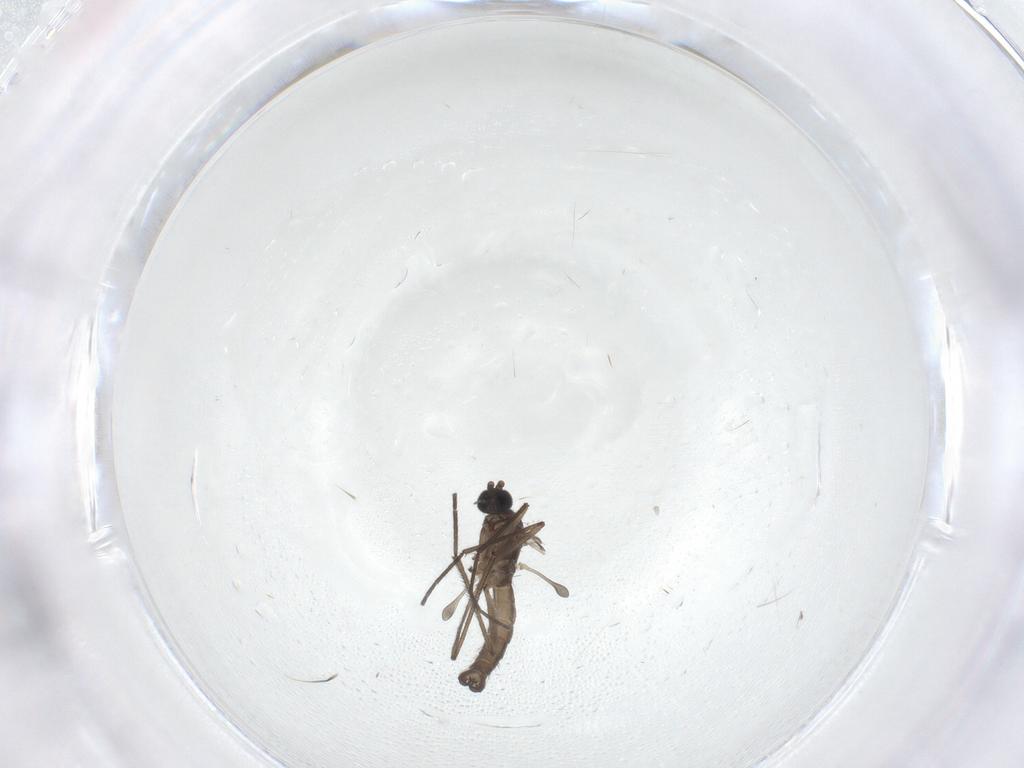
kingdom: Animalia
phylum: Arthropoda
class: Insecta
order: Diptera
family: Sciaridae
